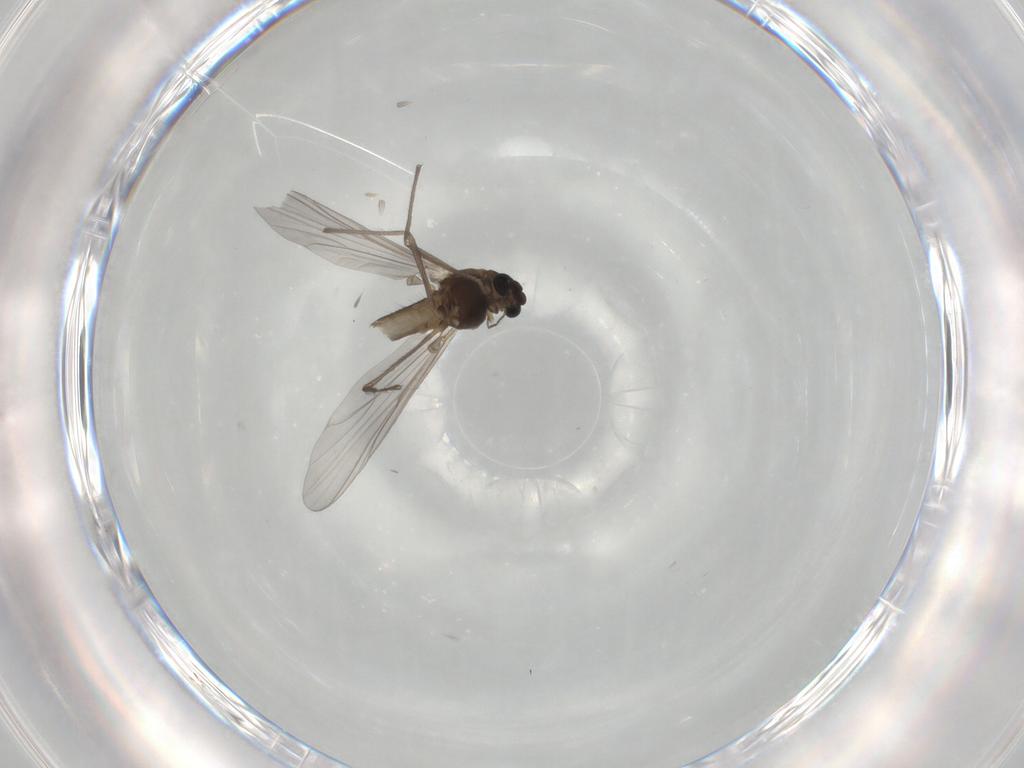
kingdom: Animalia
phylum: Arthropoda
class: Insecta
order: Diptera
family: Chironomidae
